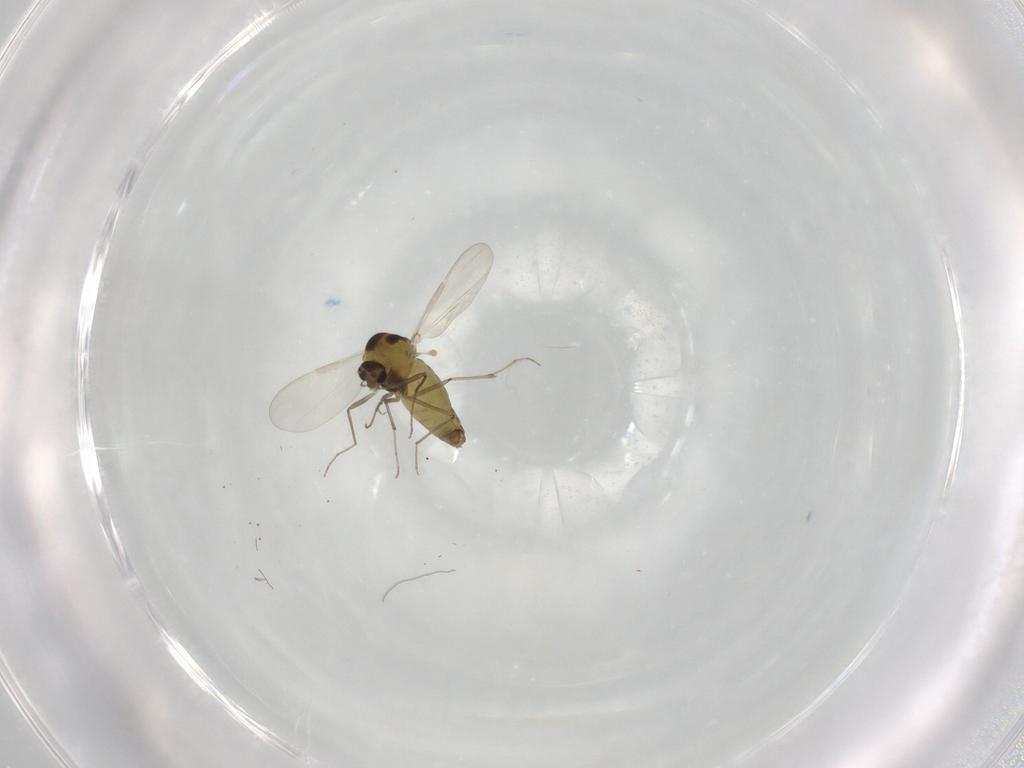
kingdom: Animalia
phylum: Arthropoda
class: Insecta
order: Diptera
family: Chironomidae
